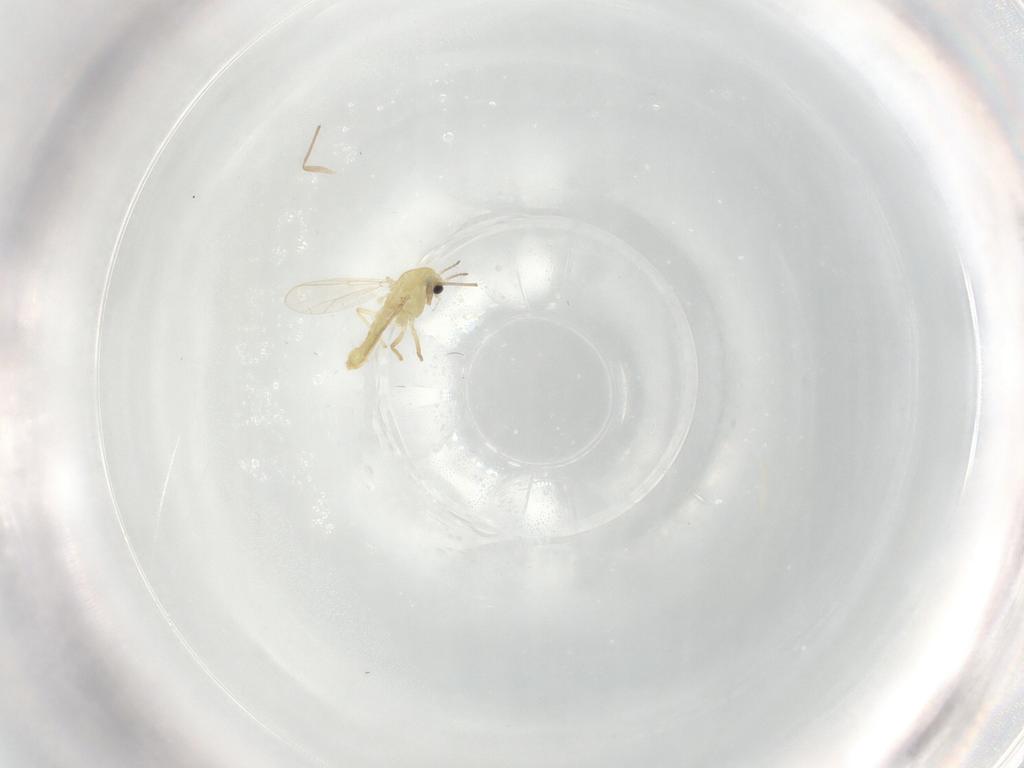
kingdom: Animalia
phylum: Arthropoda
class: Insecta
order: Diptera
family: Chironomidae
